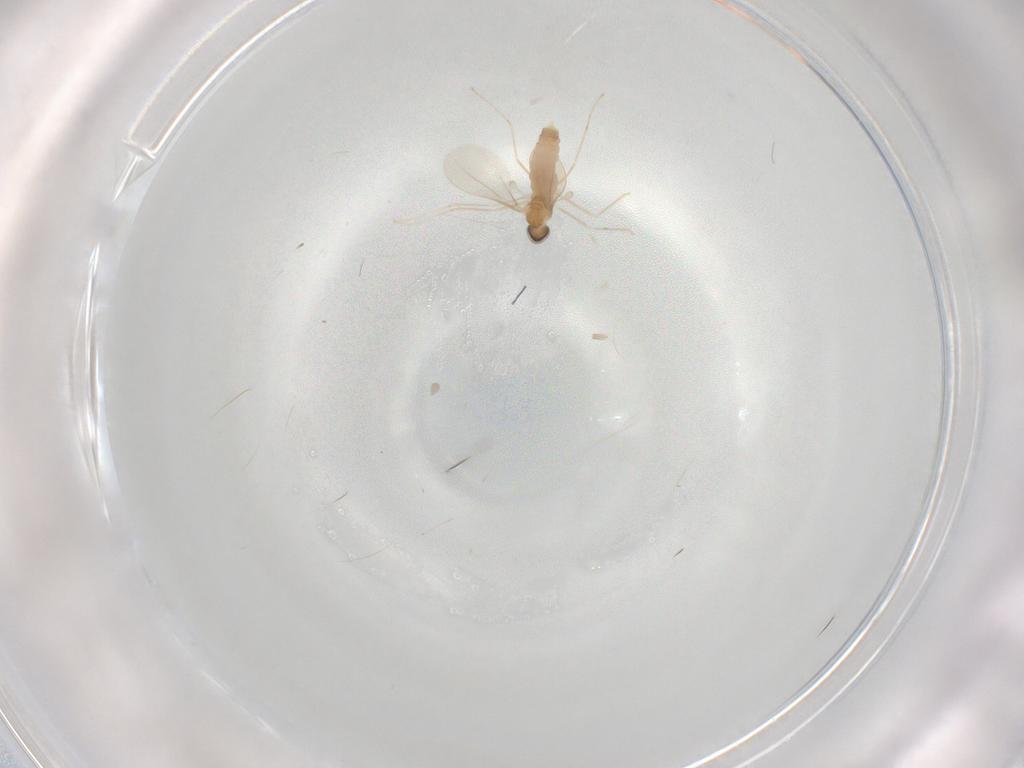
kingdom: Animalia
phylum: Arthropoda
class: Insecta
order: Diptera
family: Cecidomyiidae
